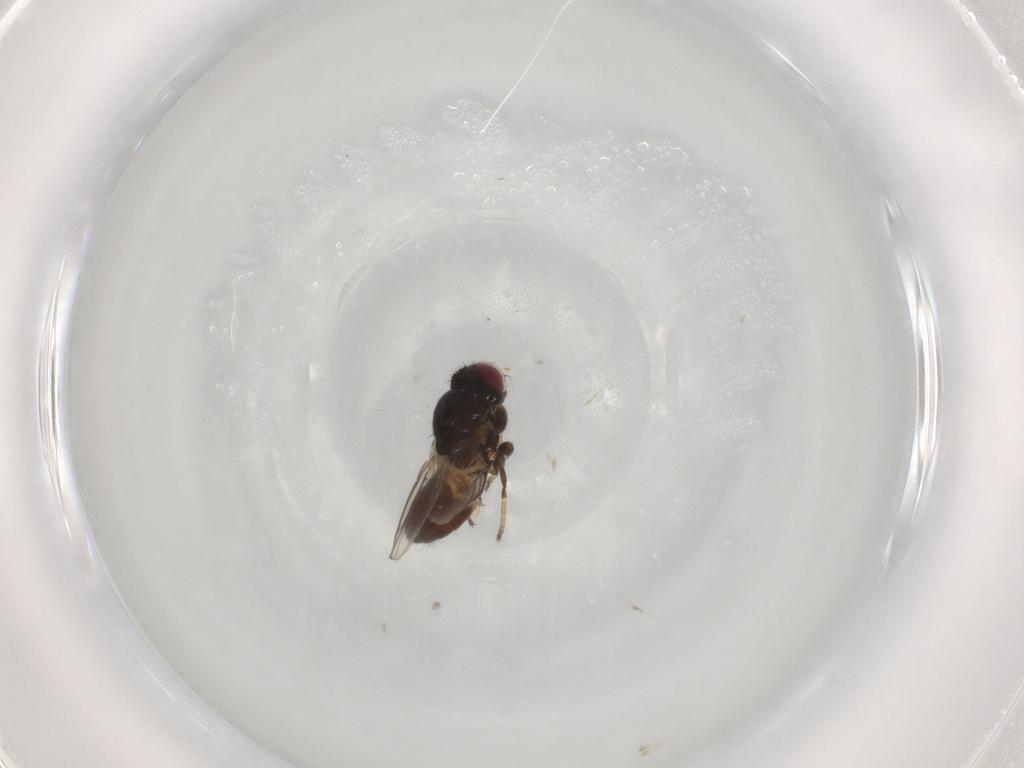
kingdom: Animalia
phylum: Arthropoda
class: Insecta
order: Diptera
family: Chloropidae
